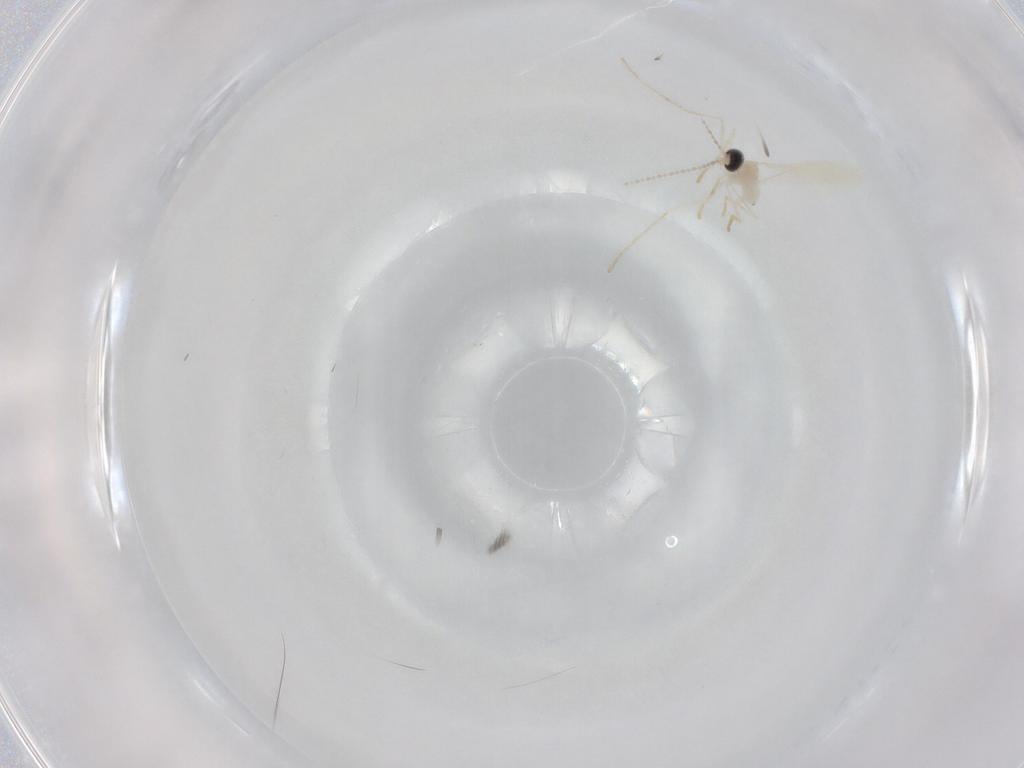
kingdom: Animalia
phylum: Arthropoda
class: Insecta
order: Diptera
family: Cecidomyiidae
